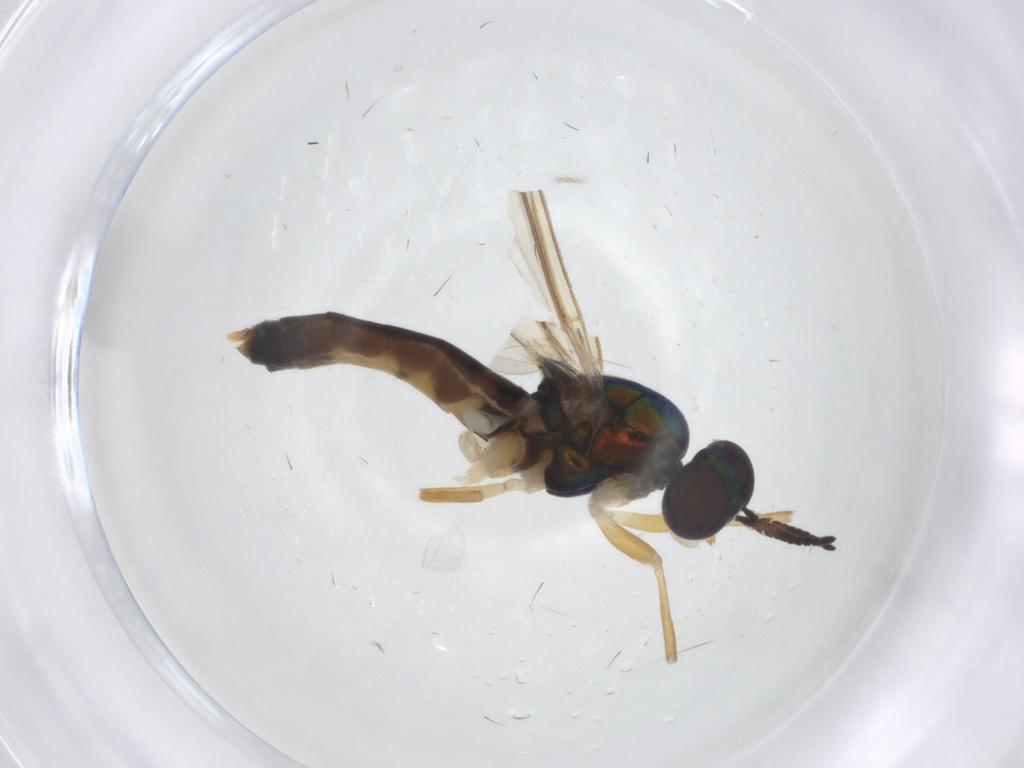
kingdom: Animalia
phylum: Arthropoda
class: Insecta
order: Diptera
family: Stratiomyidae
